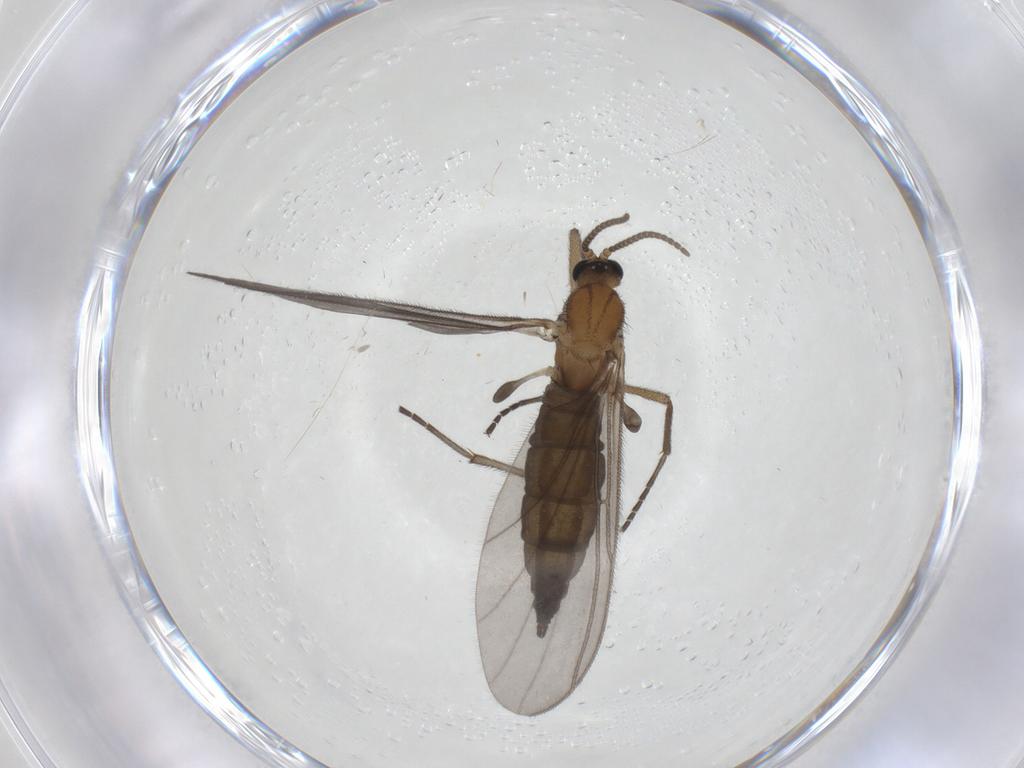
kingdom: Animalia
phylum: Arthropoda
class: Insecta
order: Diptera
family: Sciaridae
